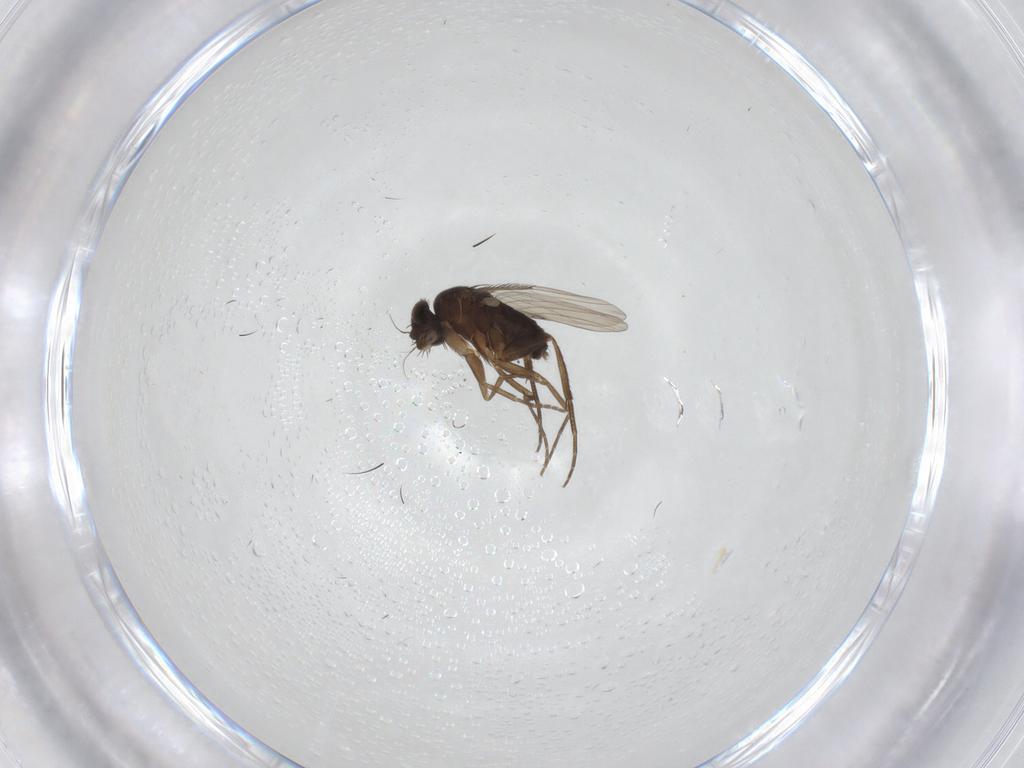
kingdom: Animalia
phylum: Arthropoda
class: Insecta
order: Diptera
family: Phoridae
